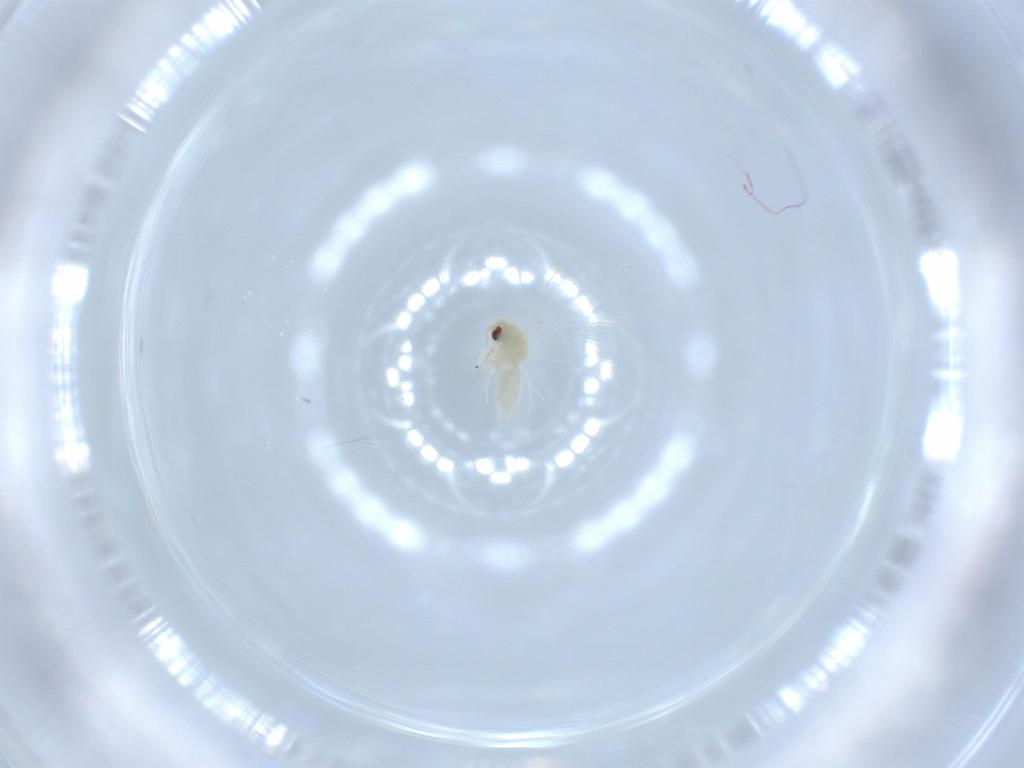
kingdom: Animalia
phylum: Arthropoda
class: Insecta
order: Hemiptera
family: Aleyrodidae
